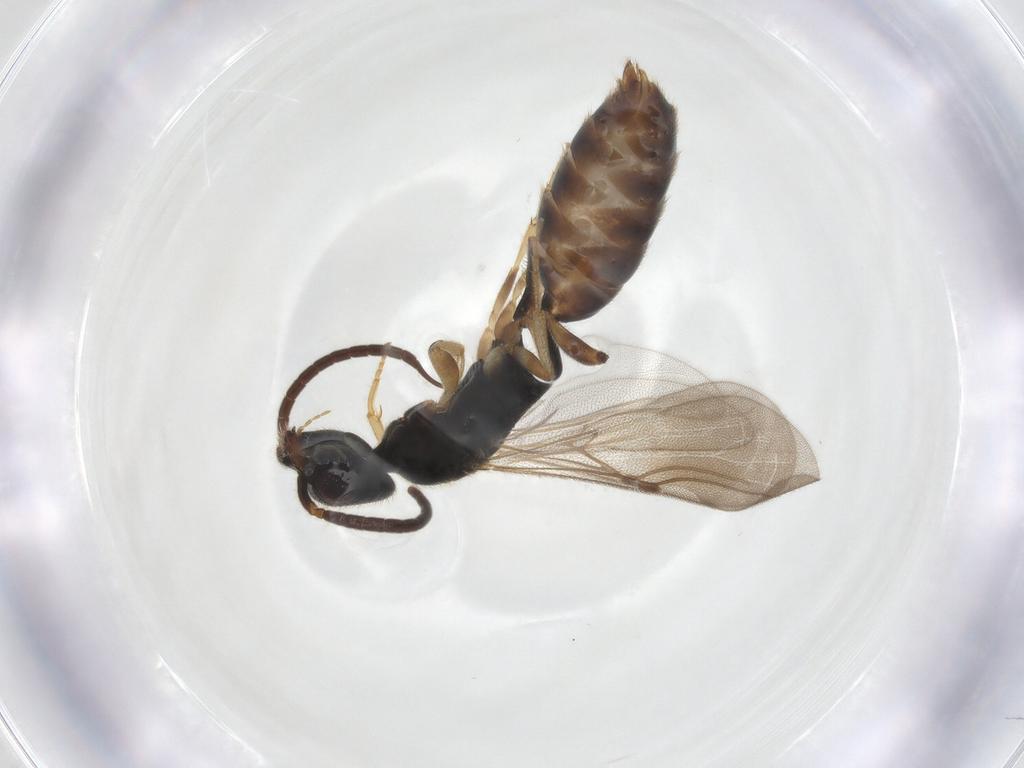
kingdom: Animalia
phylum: Arthropoda
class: Insecta
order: Hymenoptera
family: Bethylidae
